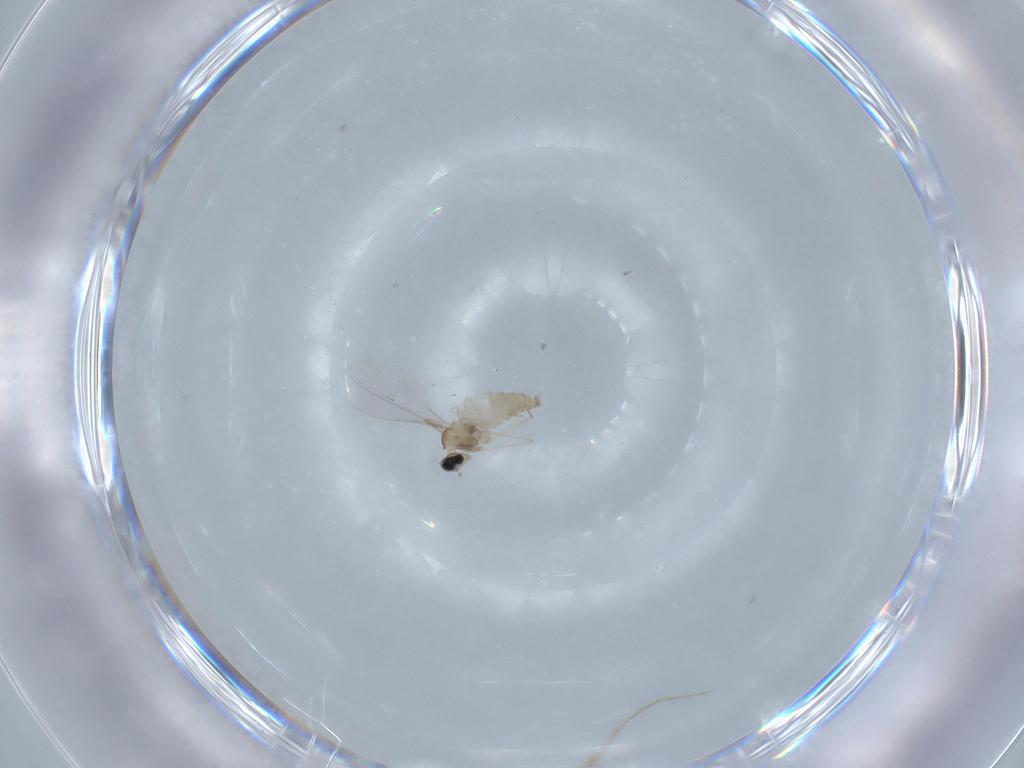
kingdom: Animalia
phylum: Arthropoda
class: Insecta
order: Diptera
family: Cecidomyiidae
